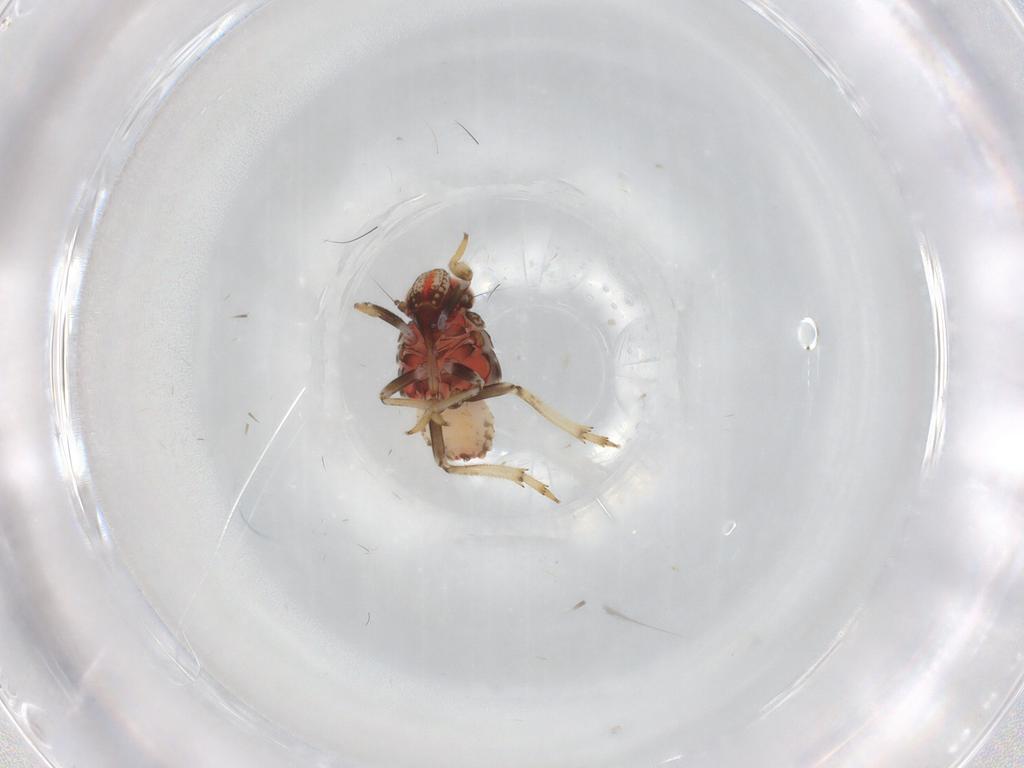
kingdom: Animalia
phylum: Arthropoda
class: Insecta
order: Hemiptera
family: Issidae
